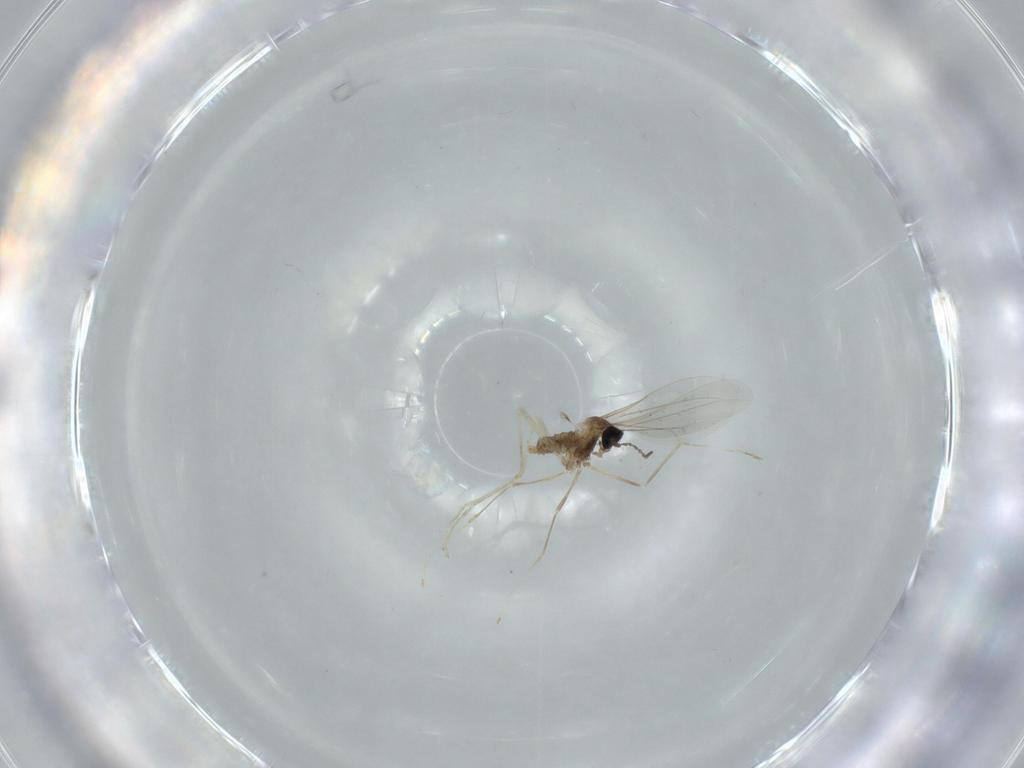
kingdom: Animalia
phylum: Arthropoda
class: Insecta
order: Diptera
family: Cecidomyiidae
